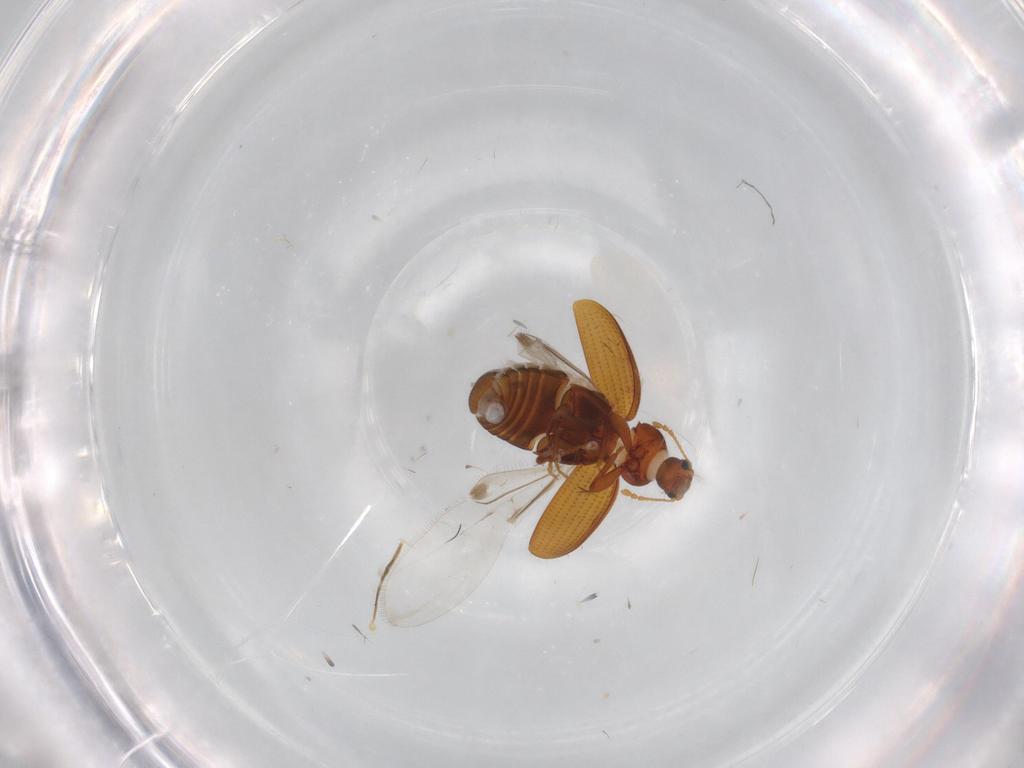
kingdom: Animalia
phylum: Arthropoda
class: Insecta
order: Coleoptera
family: Latridiidae
